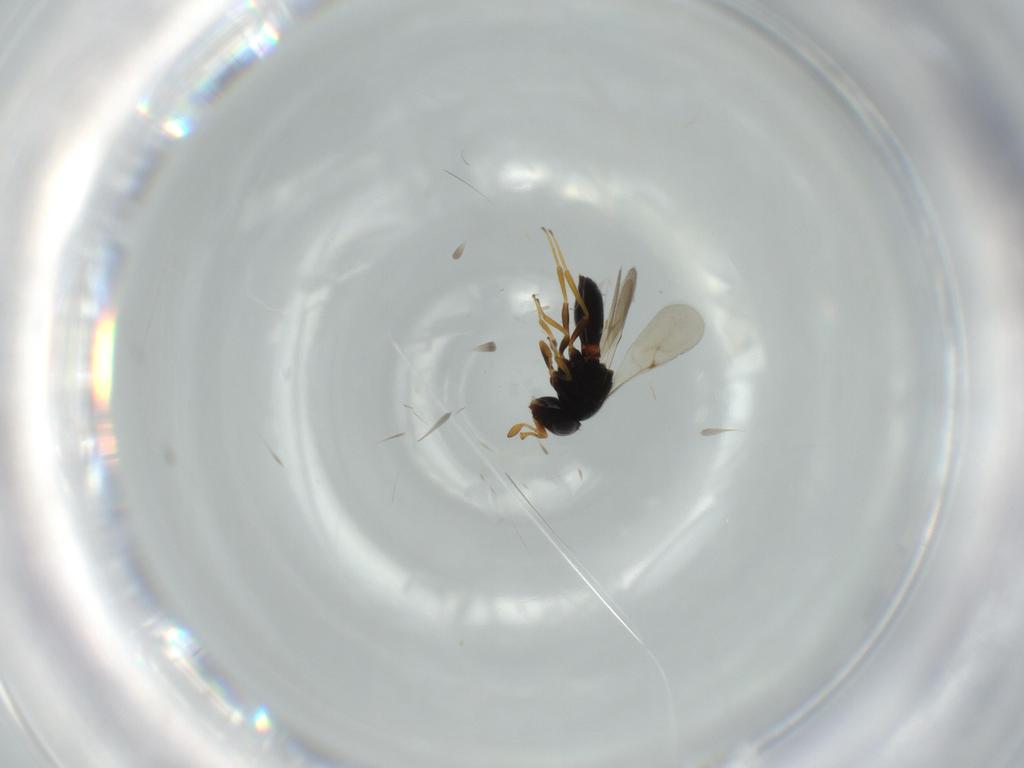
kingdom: Animalia
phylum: Arthropoda
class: Insecta
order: Hymenoptera
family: Scelionidae
